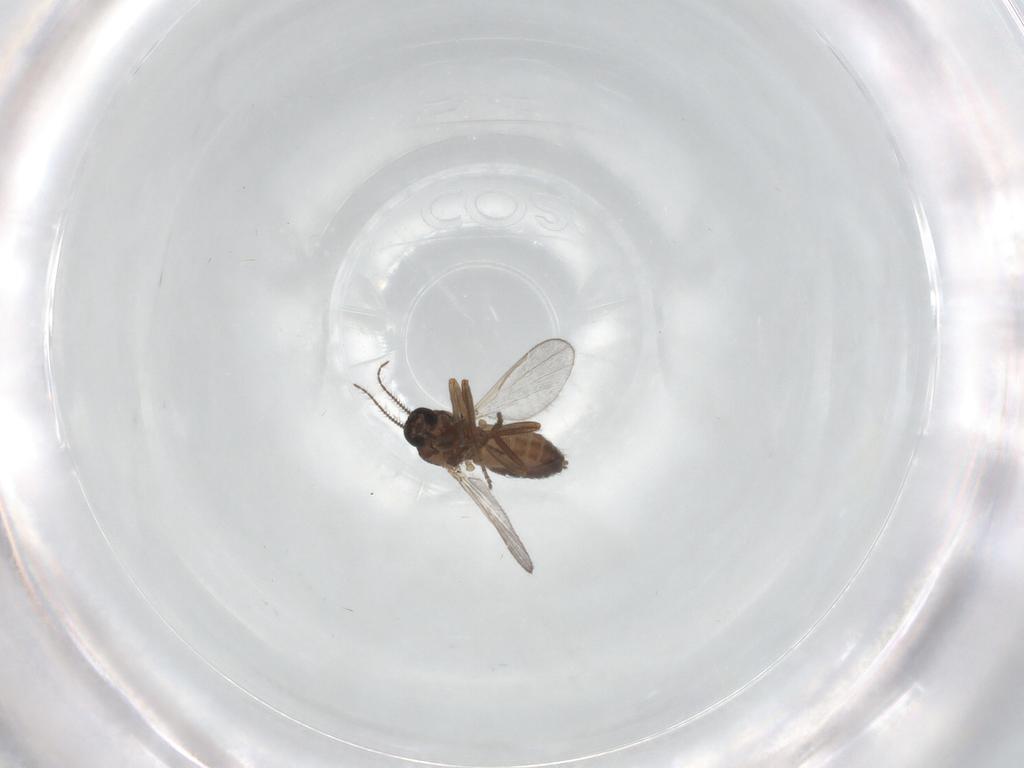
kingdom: Animalia
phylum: Arthropoda
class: Insecta
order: Diptera
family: Ceratopogonidae
